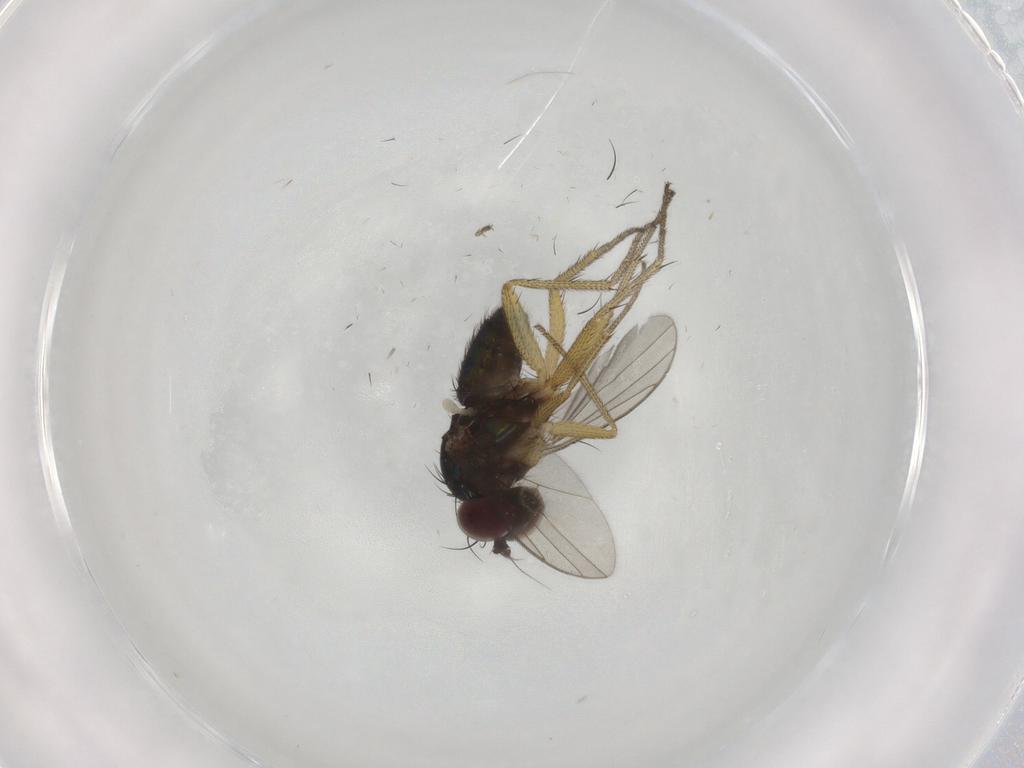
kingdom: Animalia
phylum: Arthropoda
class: Insecta
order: Diptera
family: Dolichopodidae
